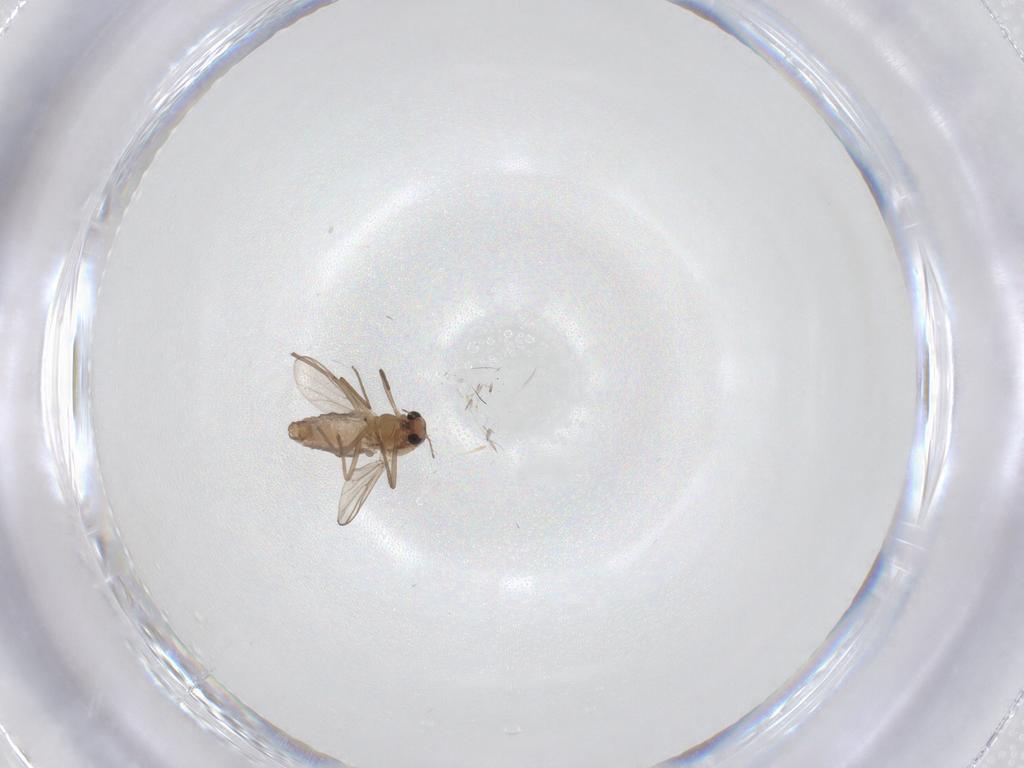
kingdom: Animalia
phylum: Arthropoda
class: Insecta
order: Diptera
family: Chironomidae
